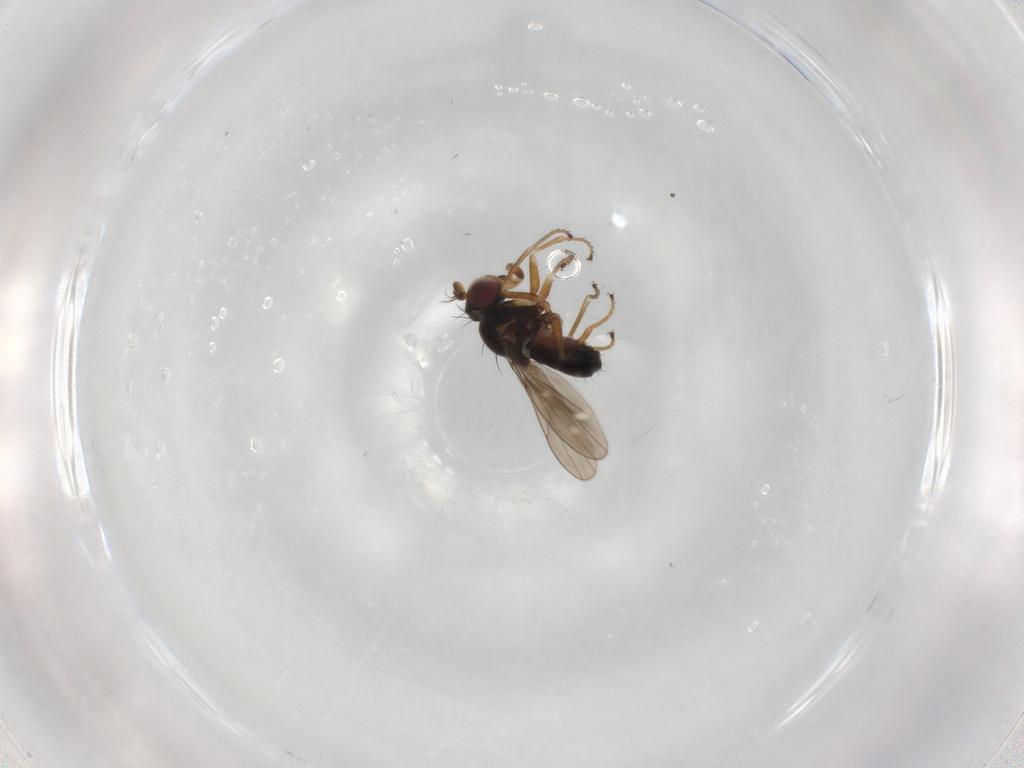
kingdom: Animalia
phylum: Arthropoda
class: Insecta
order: Diptera
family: Ephydridae
